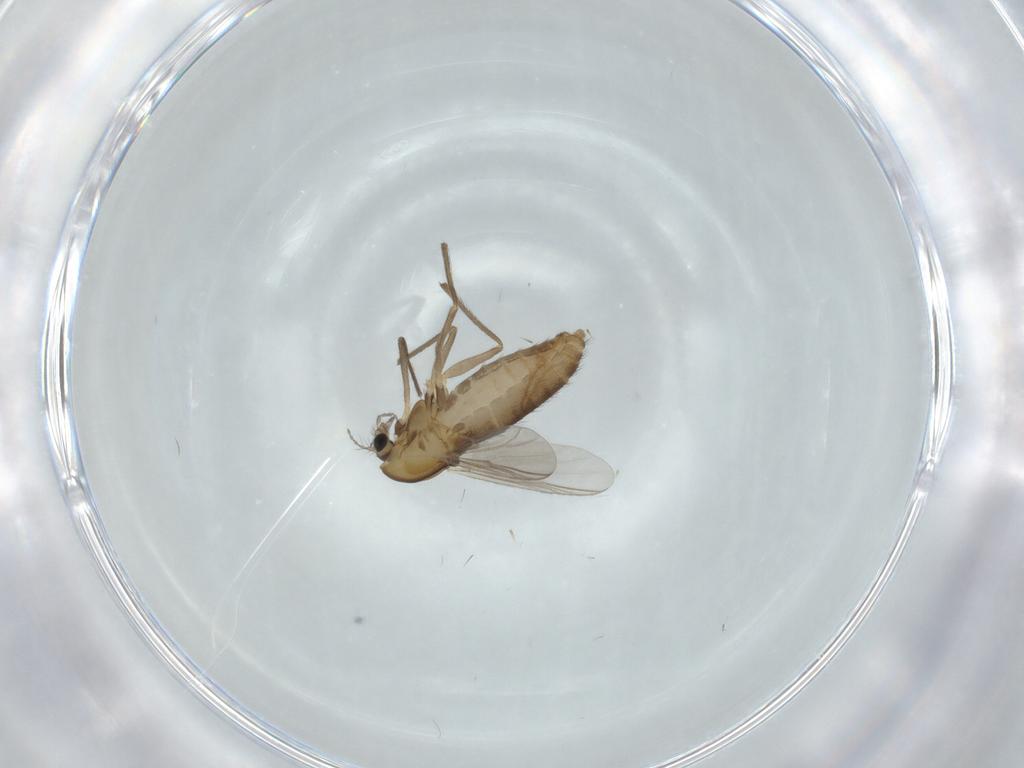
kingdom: Animalia
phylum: Arthropoda
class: Insecta
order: Diptera
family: Chironomidae
